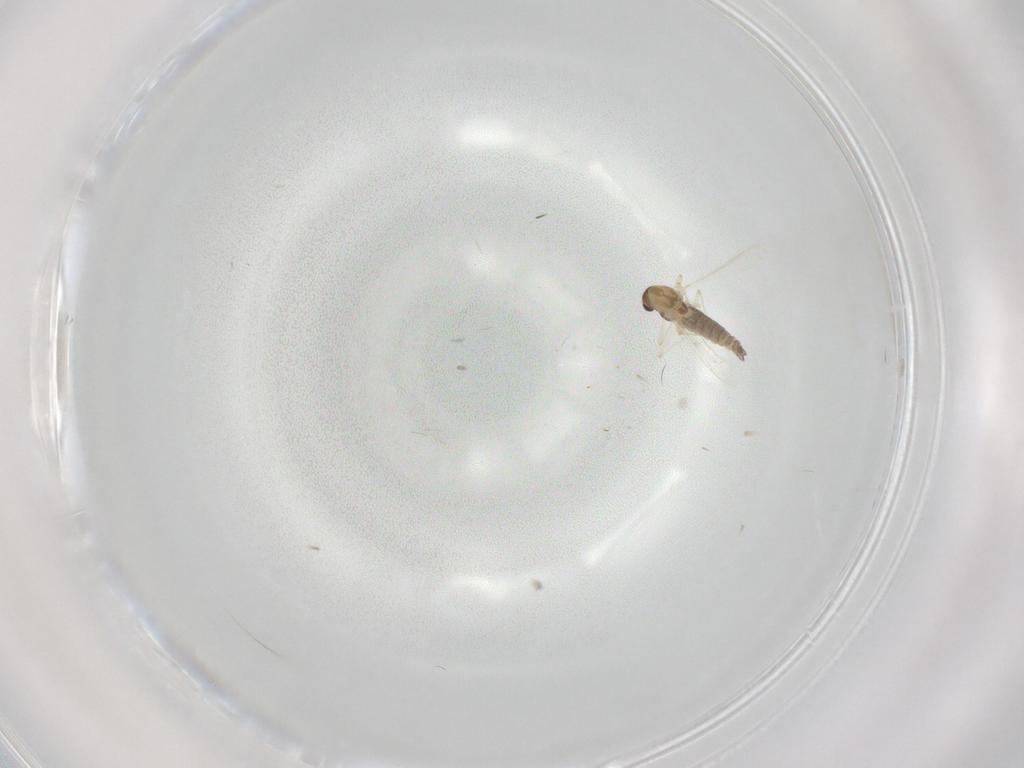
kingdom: Animalia
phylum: Arthropoda
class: Insecta
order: Diptera
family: Chironomidae
